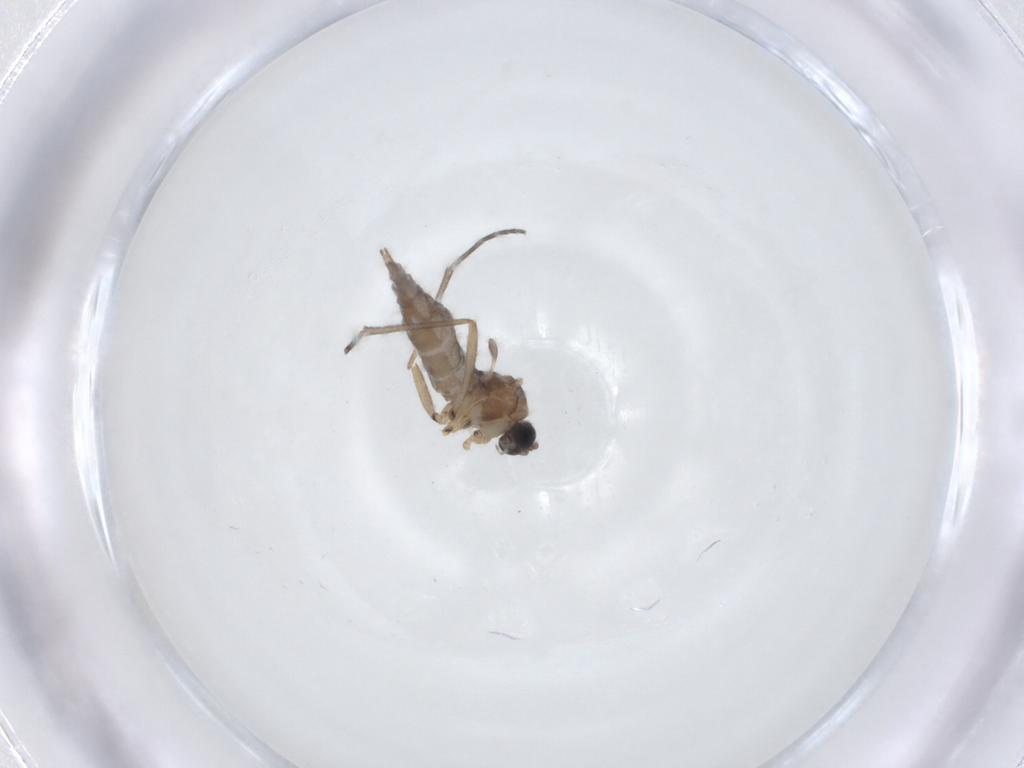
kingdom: Animalia
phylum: Arthropoda
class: Insecta
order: Diptera
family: Sciaridae
